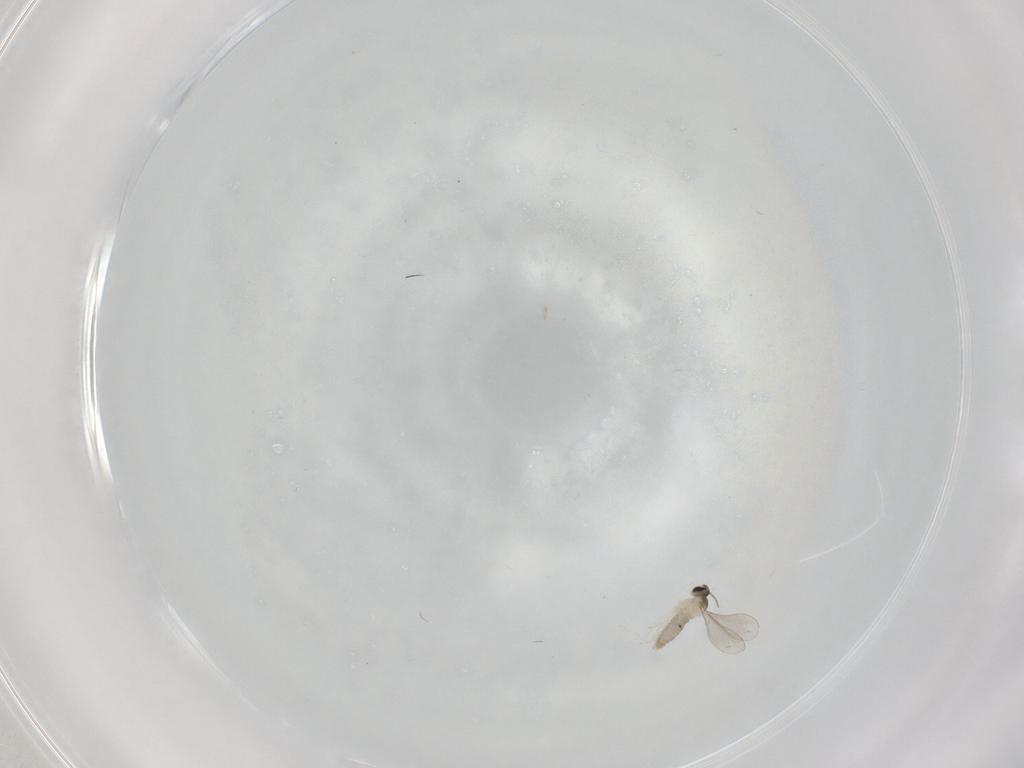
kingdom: Animalia
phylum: Arthropoda
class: Insecta
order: Diptera
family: Cecidomyiidae
